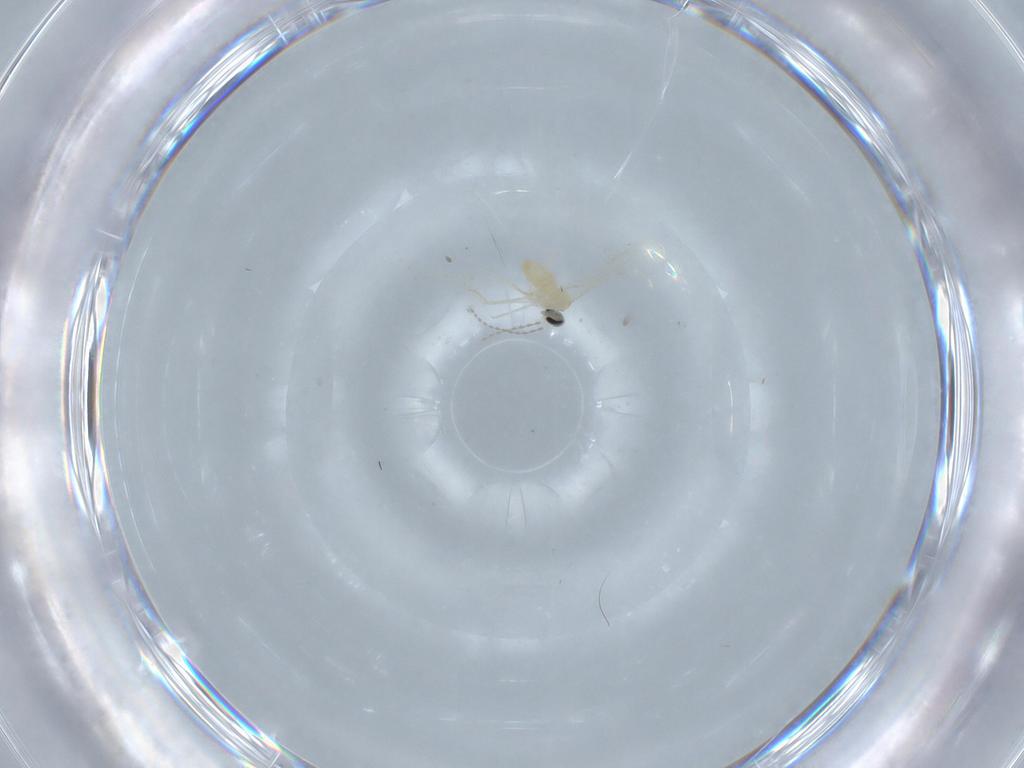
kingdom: Animalia
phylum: Arthropoda
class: Insecta
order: Diptera
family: Cecidomyiidae
